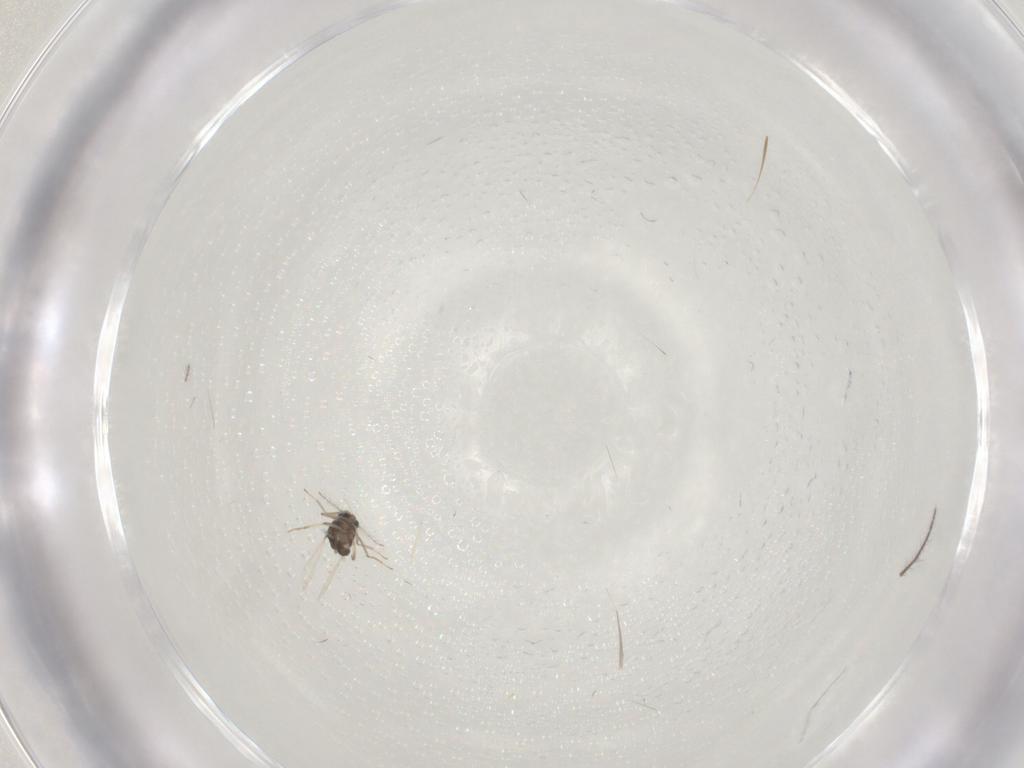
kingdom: Animalia
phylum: Arthropoda
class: Insecta
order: Diptera
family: Ceratopogonidae
